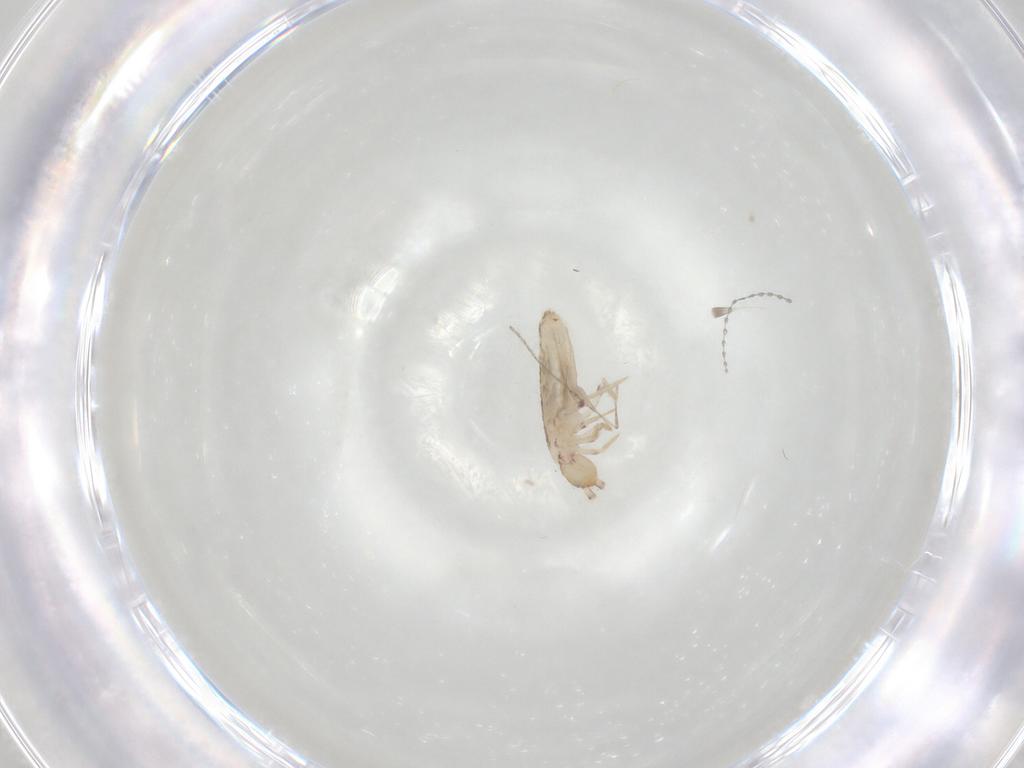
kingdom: Animalia
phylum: Arthropoda
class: Collembola
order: Entomobryomorpha
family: Entomobryidae
